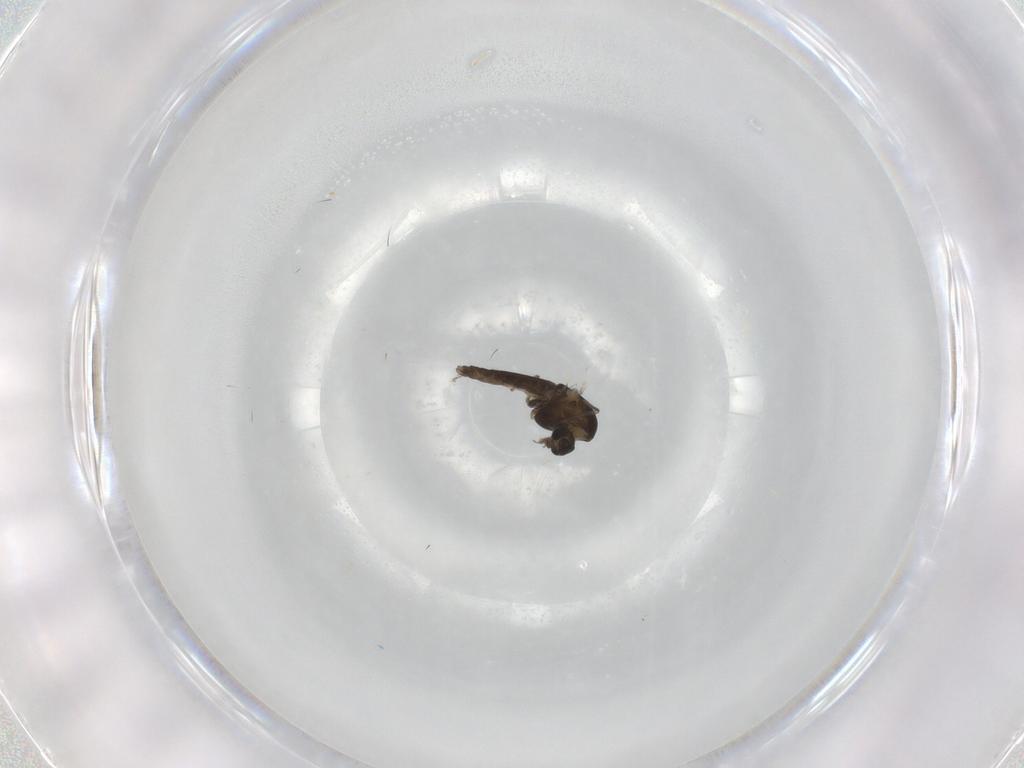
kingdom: Animalia
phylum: Arthropoda
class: Insecta
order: Diptera
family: Chironomidae
